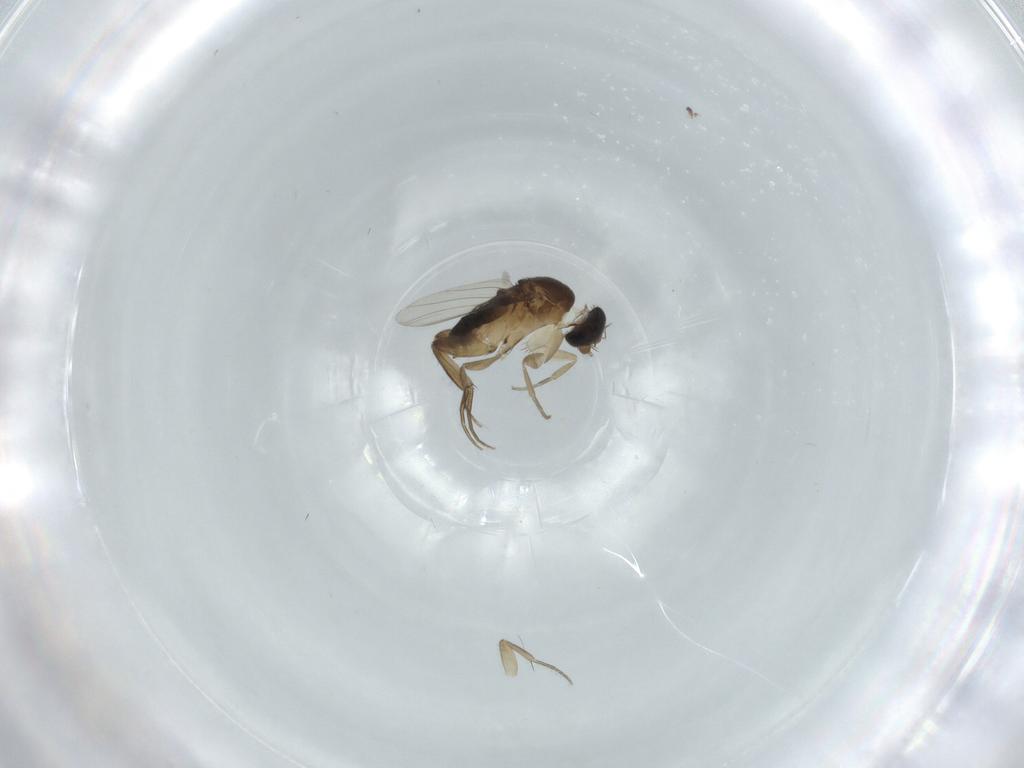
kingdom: Animalia
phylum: Arthropoda
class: Insecta
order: Diptera
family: Phoridae
